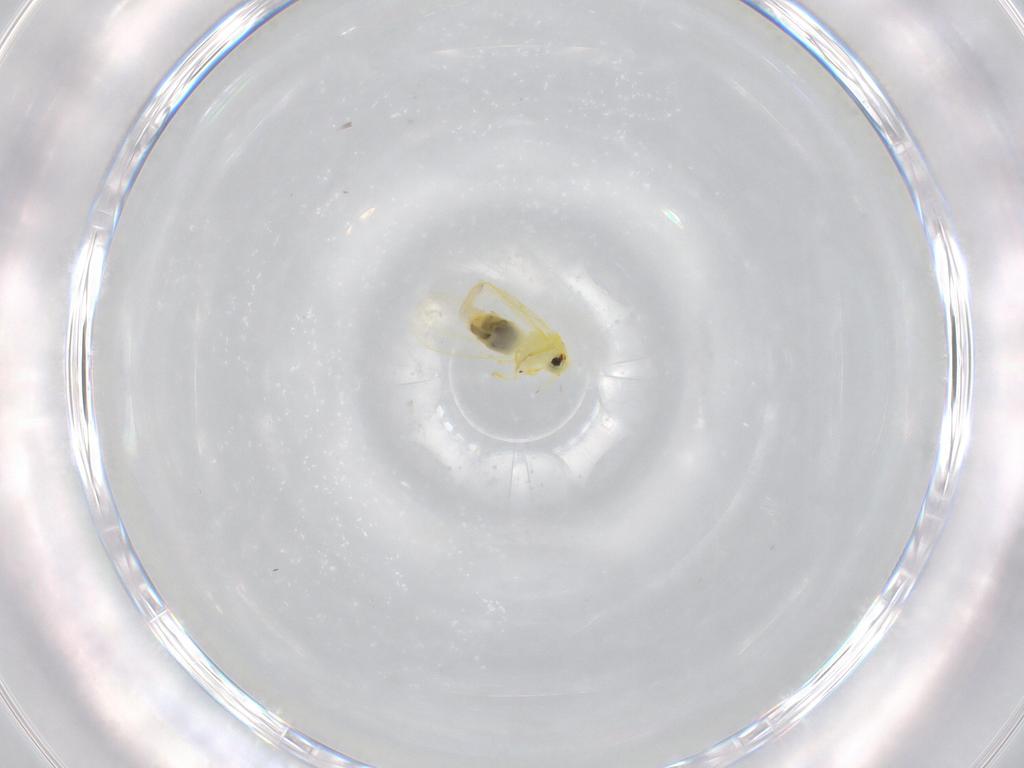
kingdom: Animalia
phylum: Arthropoda
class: Insecta
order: Hemiptera
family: Aleyrodidae
